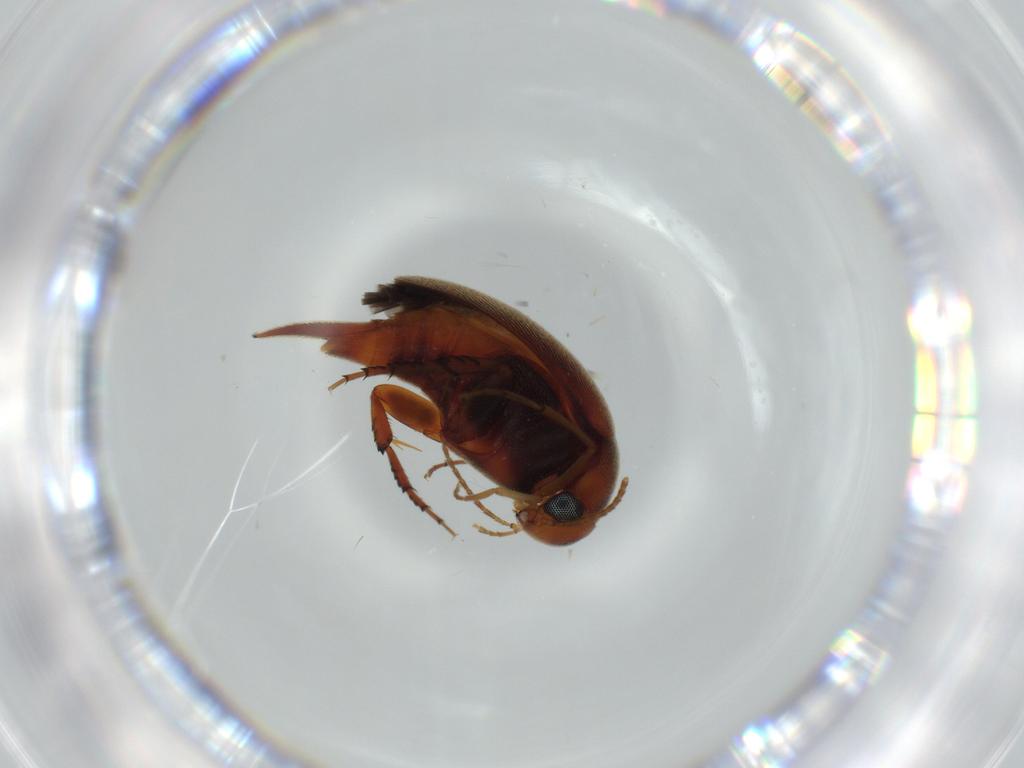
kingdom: Animalia
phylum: Arthropoda
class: Insecta
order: Coleoptera
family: Mordellidae
